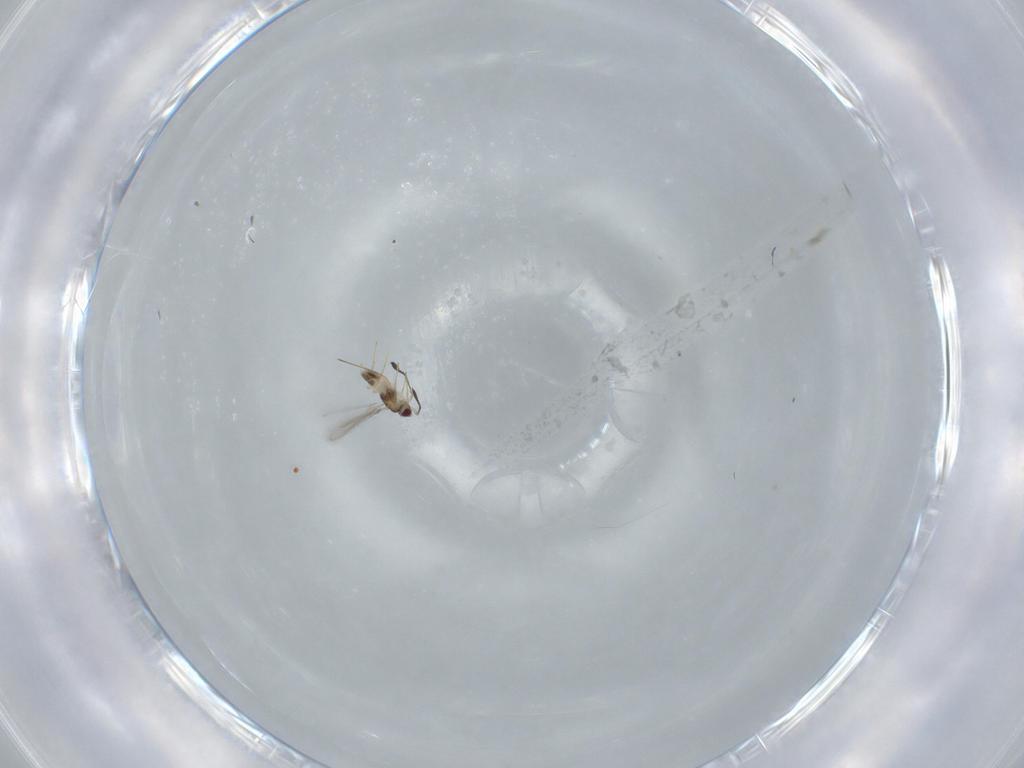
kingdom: Animalia
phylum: Arthropoda
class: Insecta
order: Hymenoptera
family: Mymaridae
